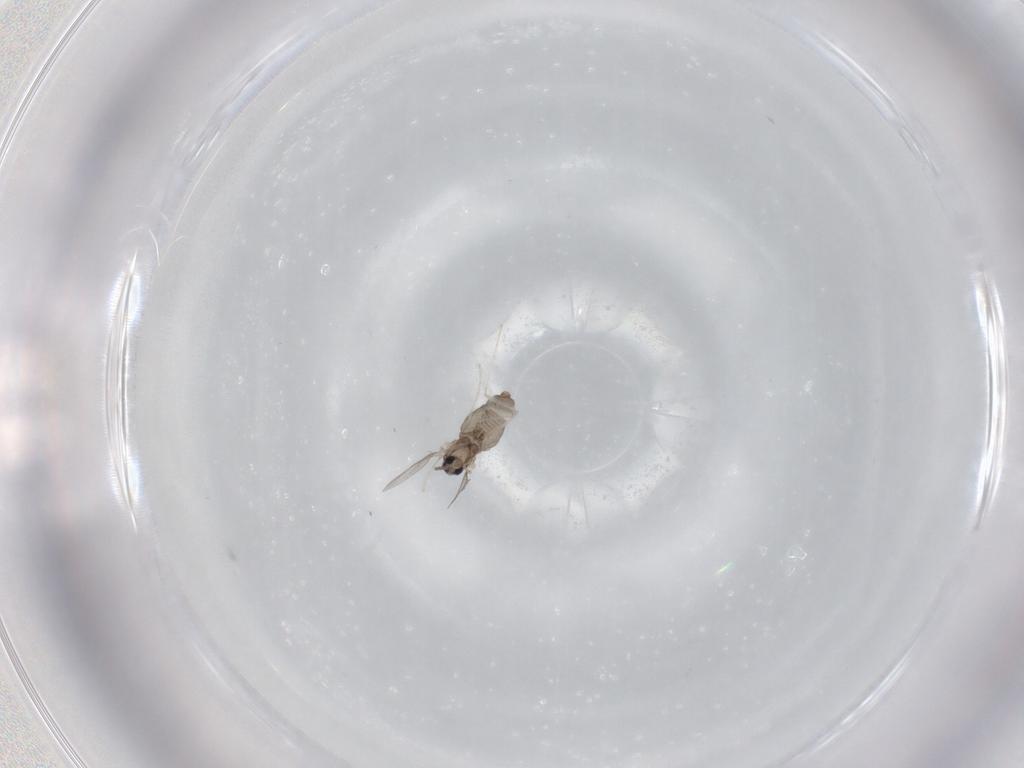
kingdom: Animalia
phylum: Arthropoda
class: Insecta
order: Diptera
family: Cecidomyiidae
